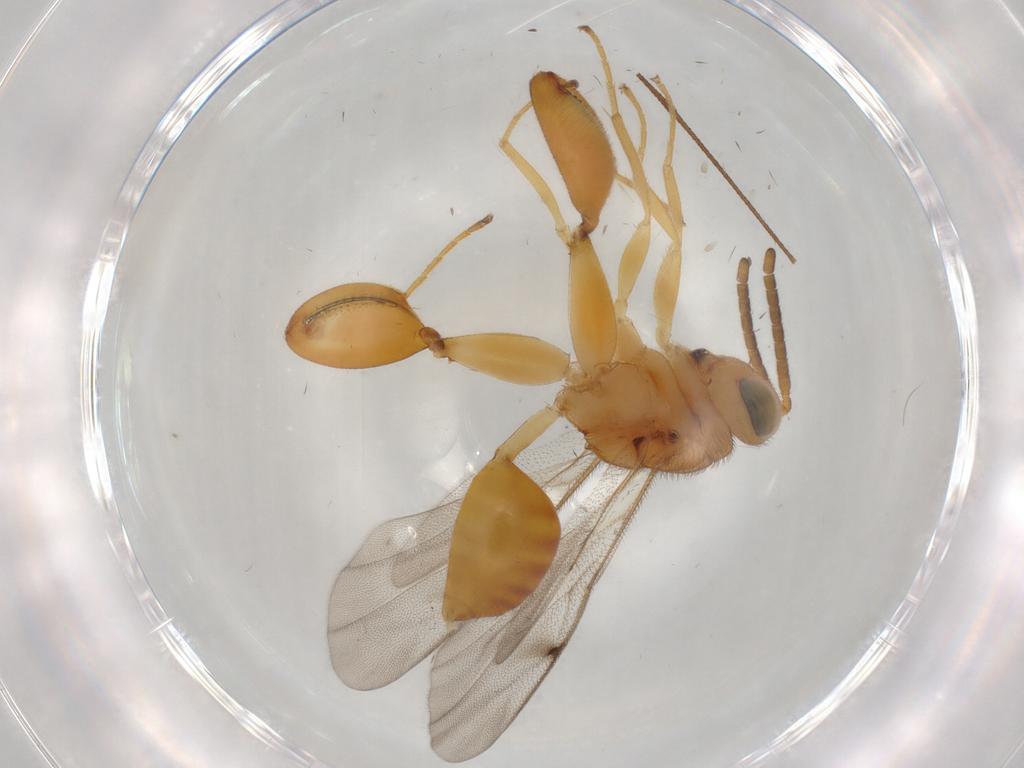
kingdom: Animalia
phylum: Arthropoda
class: Insecta
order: Hymenoptera
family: Chalcididae
